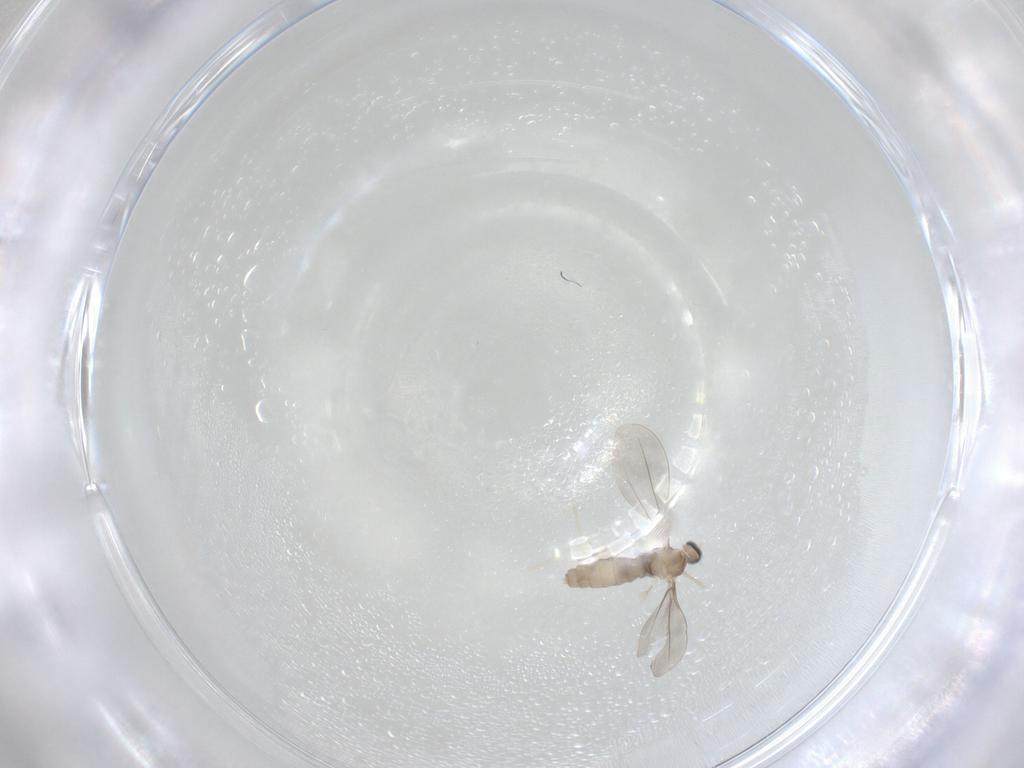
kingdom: Animalia
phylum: Arthropoda
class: Insecta
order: Diptera
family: Cecidomyiidae
